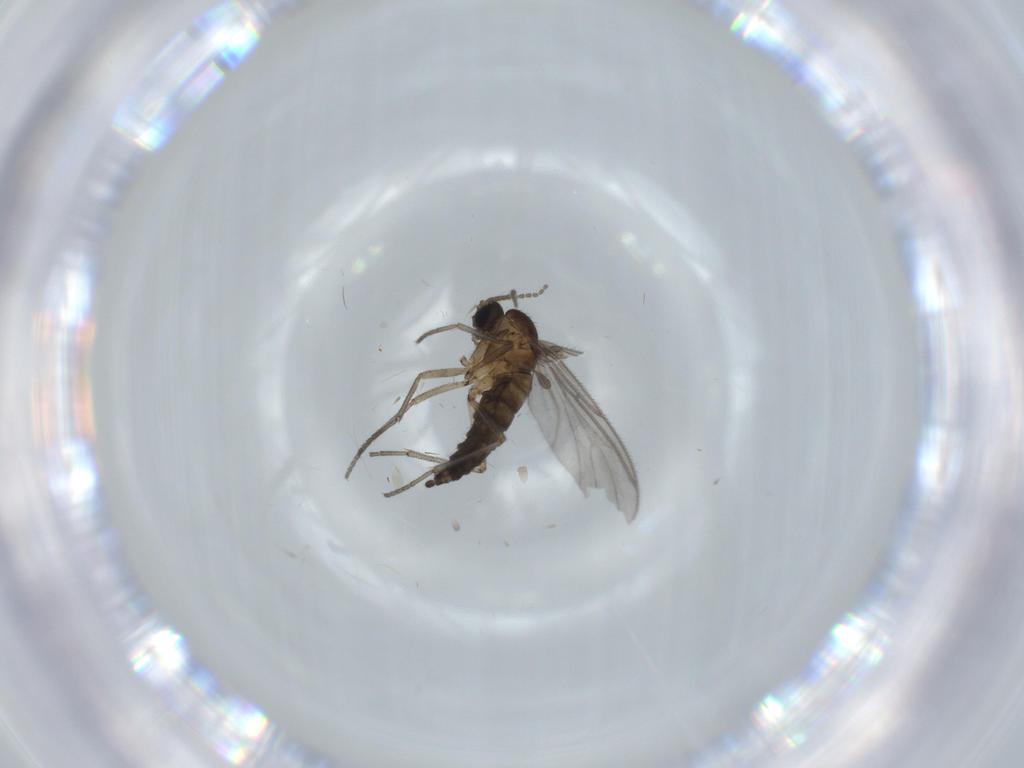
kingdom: Animalia
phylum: Arthropoda
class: Insecta
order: Diptera
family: Sciaridae
